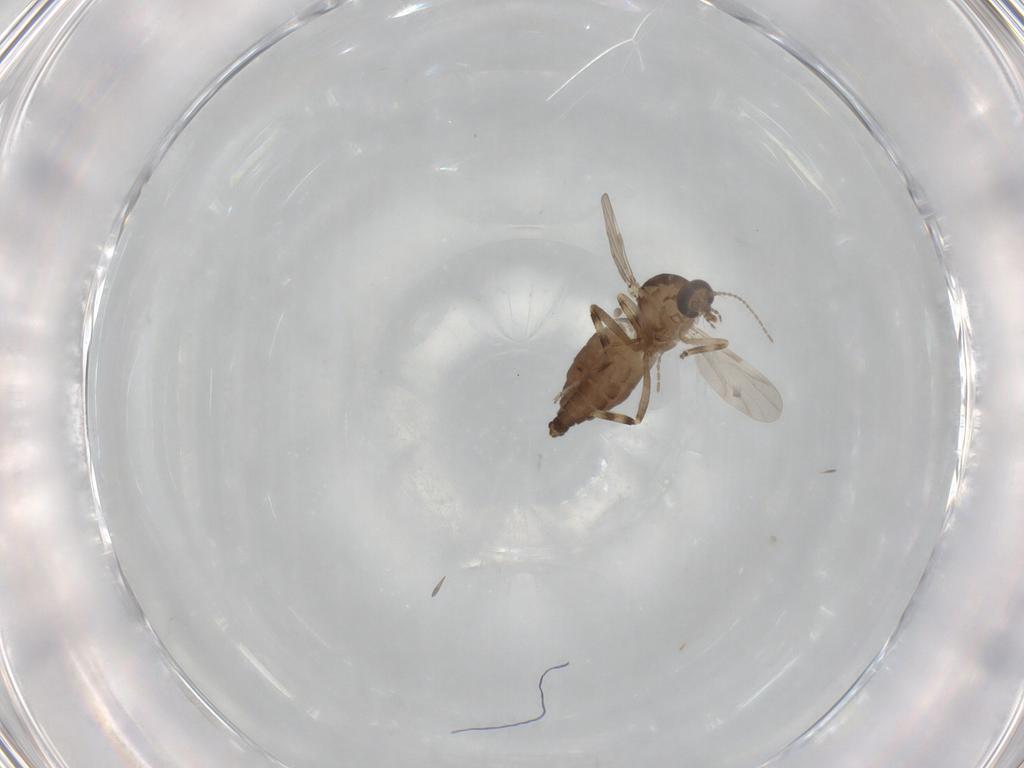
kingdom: Animalia
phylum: Arthropoda
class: Insecta
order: Diptera
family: Ceratopogonidae
